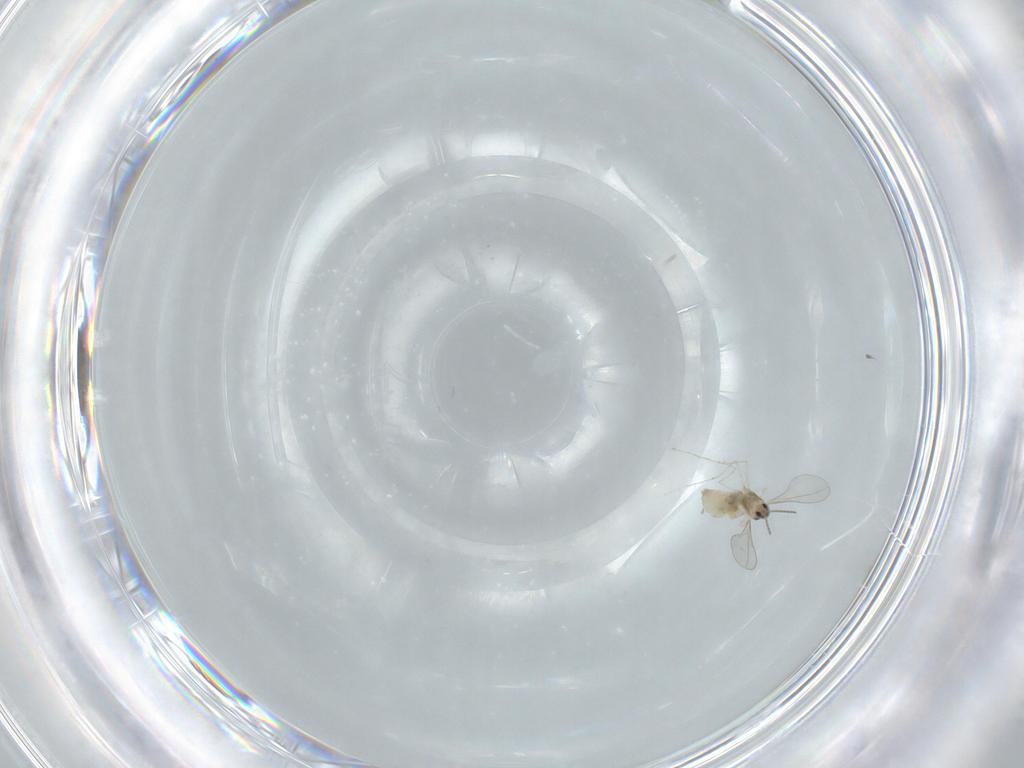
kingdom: Animalia
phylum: Arthropoda
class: Insecta
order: Diptera
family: Cecidomyiidae
